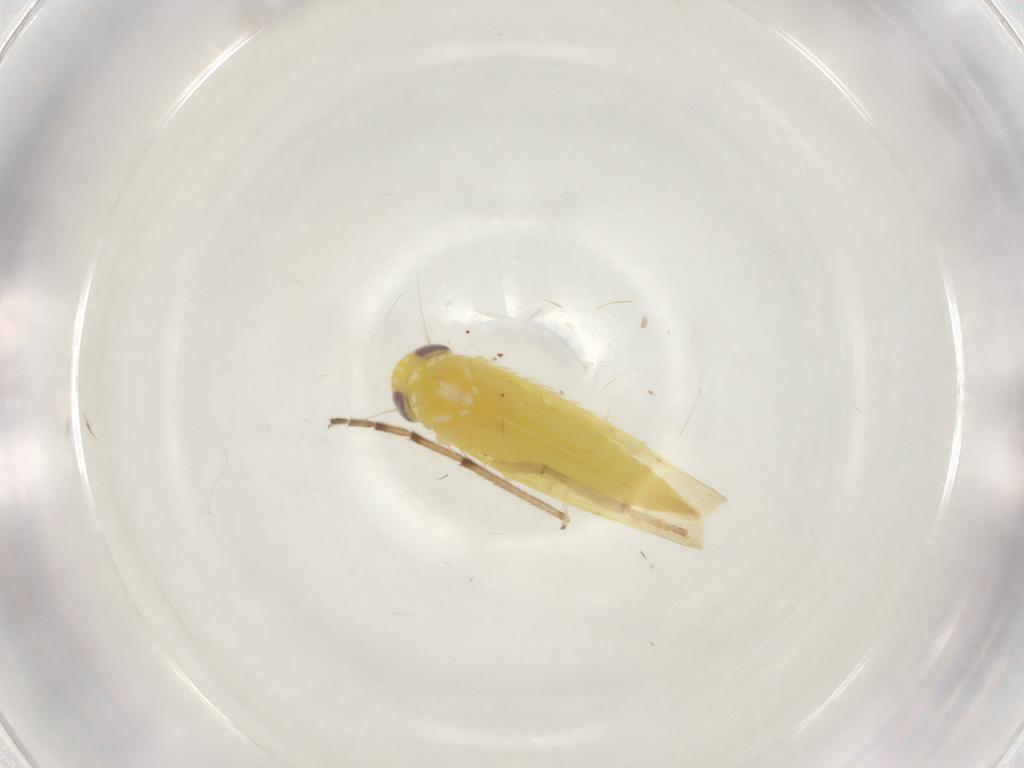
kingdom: Animalia
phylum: Arthropoda
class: Insecta
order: Hemiptera
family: Cicadellidae
